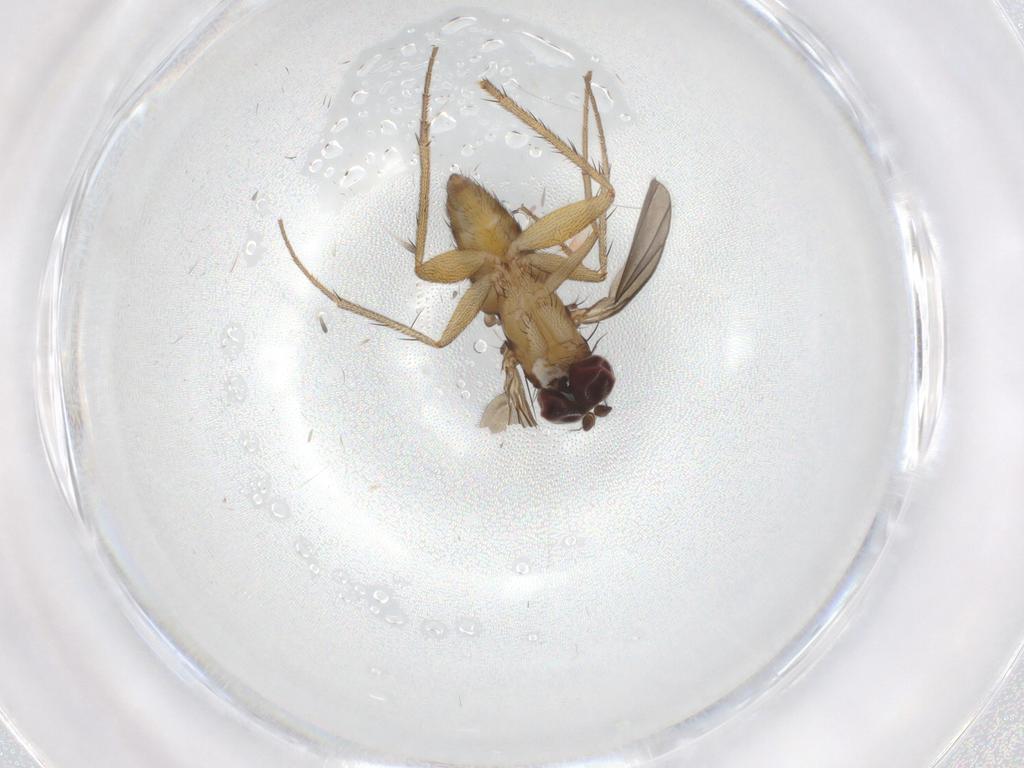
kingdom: Animalia
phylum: Arthropoda
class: Insecta
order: Diptera
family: Dolichopodidae
